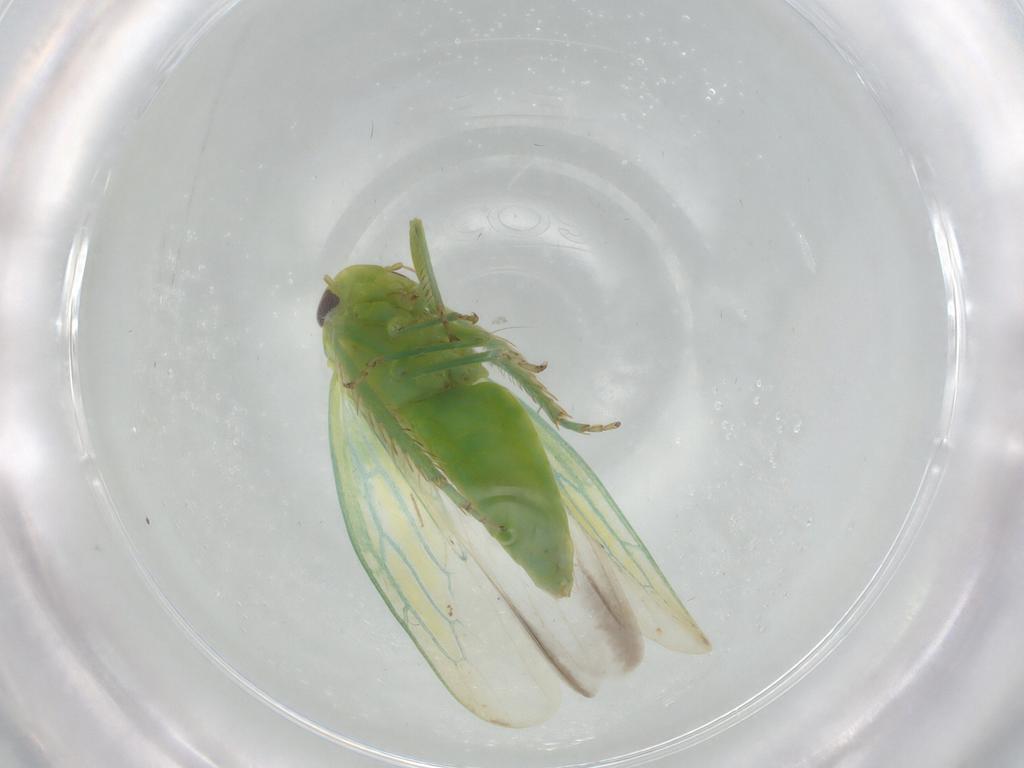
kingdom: Animalia
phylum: Arthropoda
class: Insecta
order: Hemiptera
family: Cicadellidae
